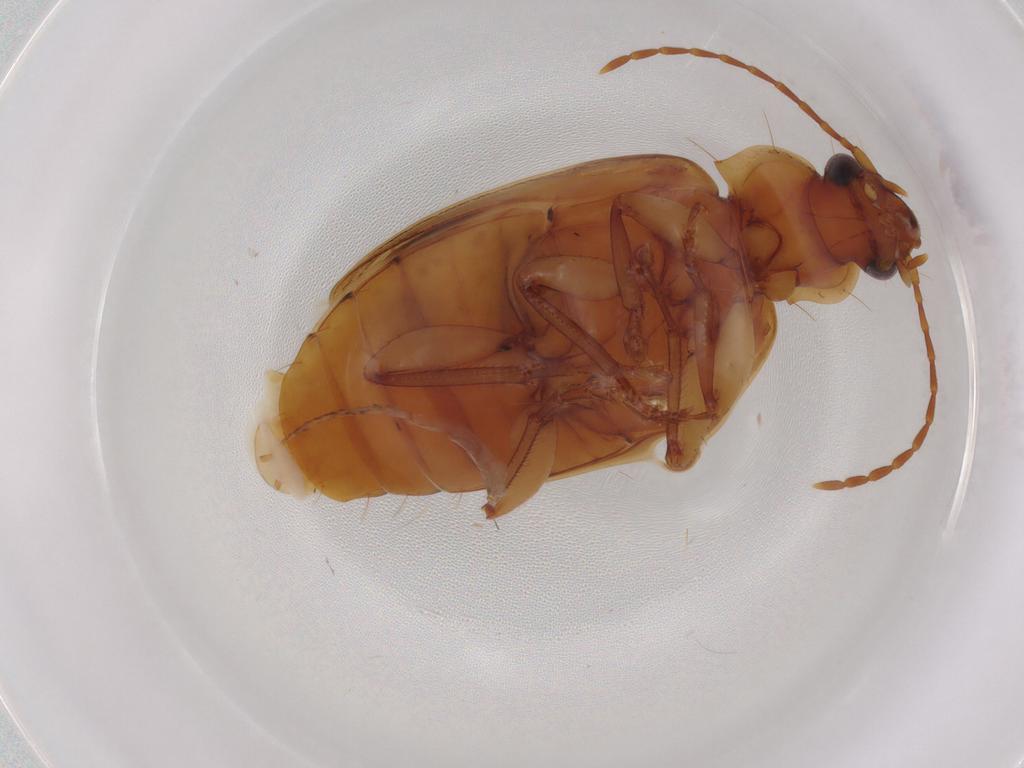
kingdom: Animalia
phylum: Arthropoda
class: Insecta
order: Coleoptera
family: Carabidae
